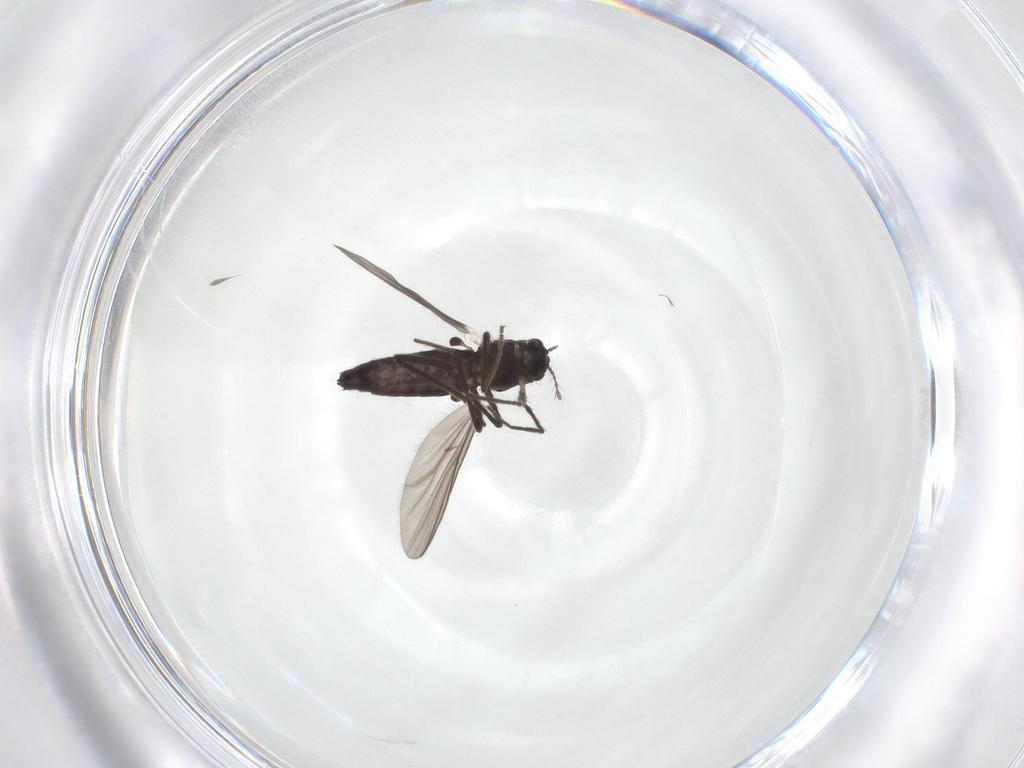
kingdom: Animalia
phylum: Arthropoda
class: Insecta
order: Diptera
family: Chironomidae
